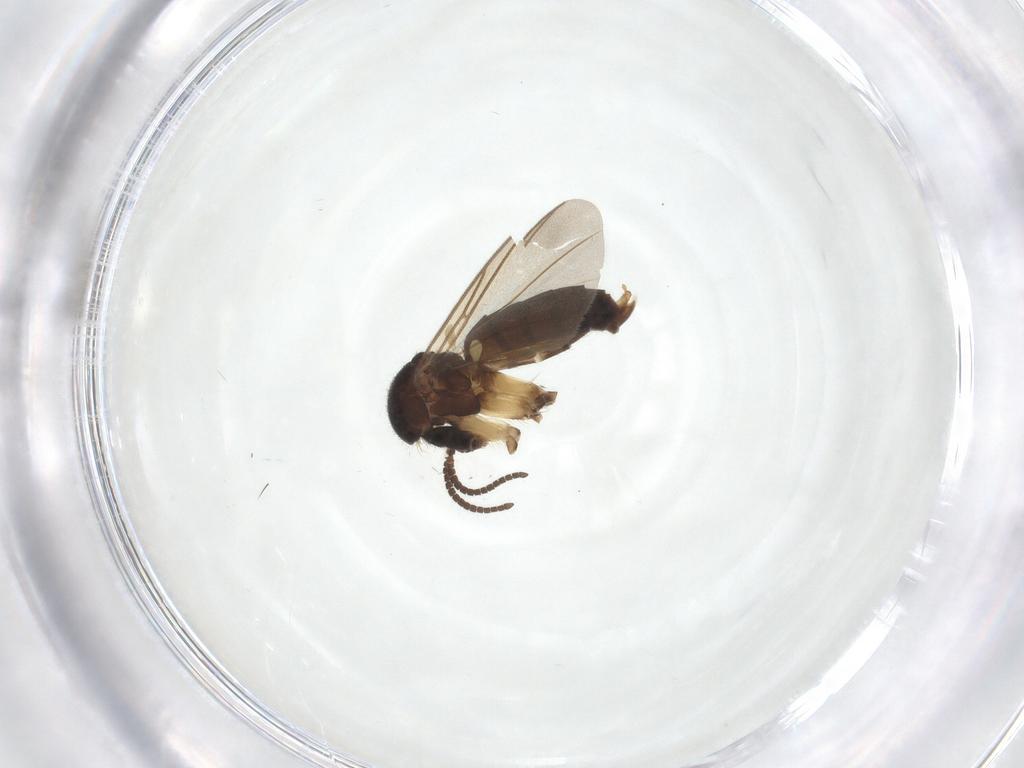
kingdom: Animalia
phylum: Arthropoda
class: Insecta
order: Diptera
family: Mycetophilidae
